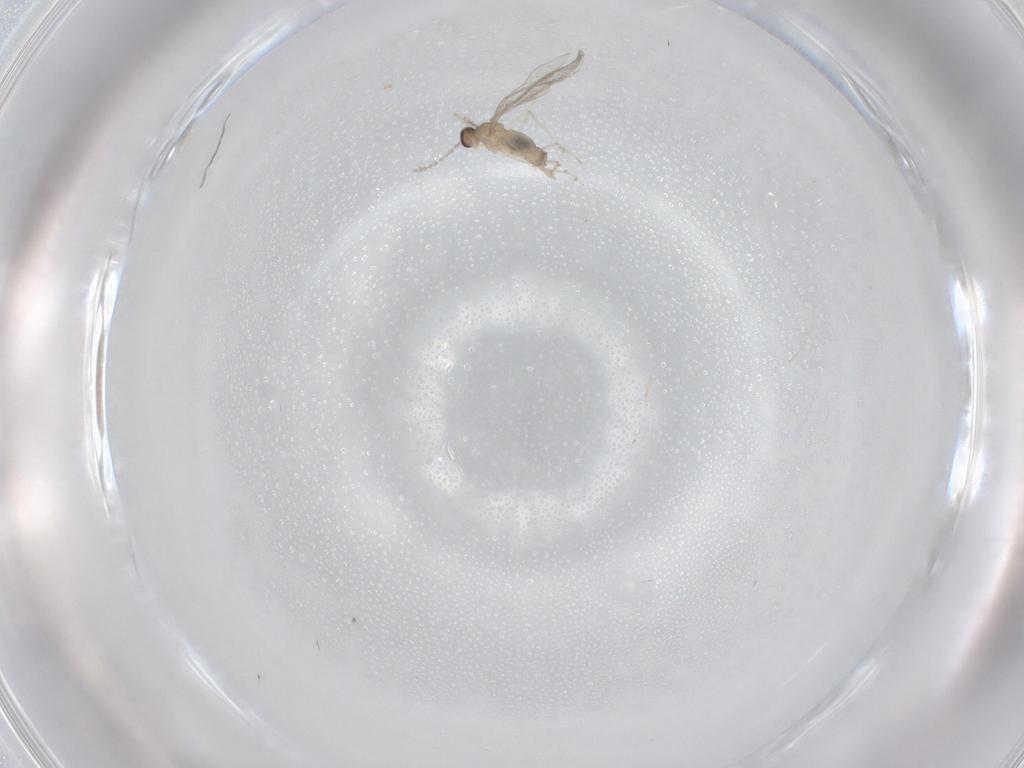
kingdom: Animalia
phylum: Arthropoda
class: Insecta
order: Diptera
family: Cecidomyiidae
